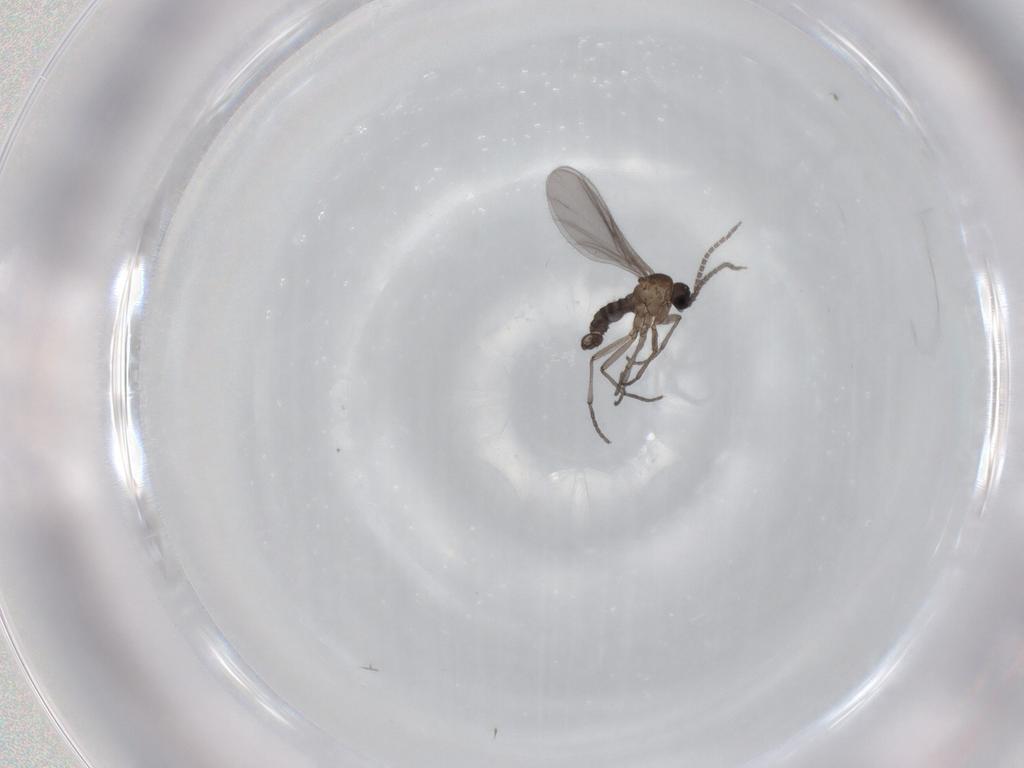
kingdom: Animalia
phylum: Arthropoda
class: Insecta
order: Diptera
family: Sciaridae
